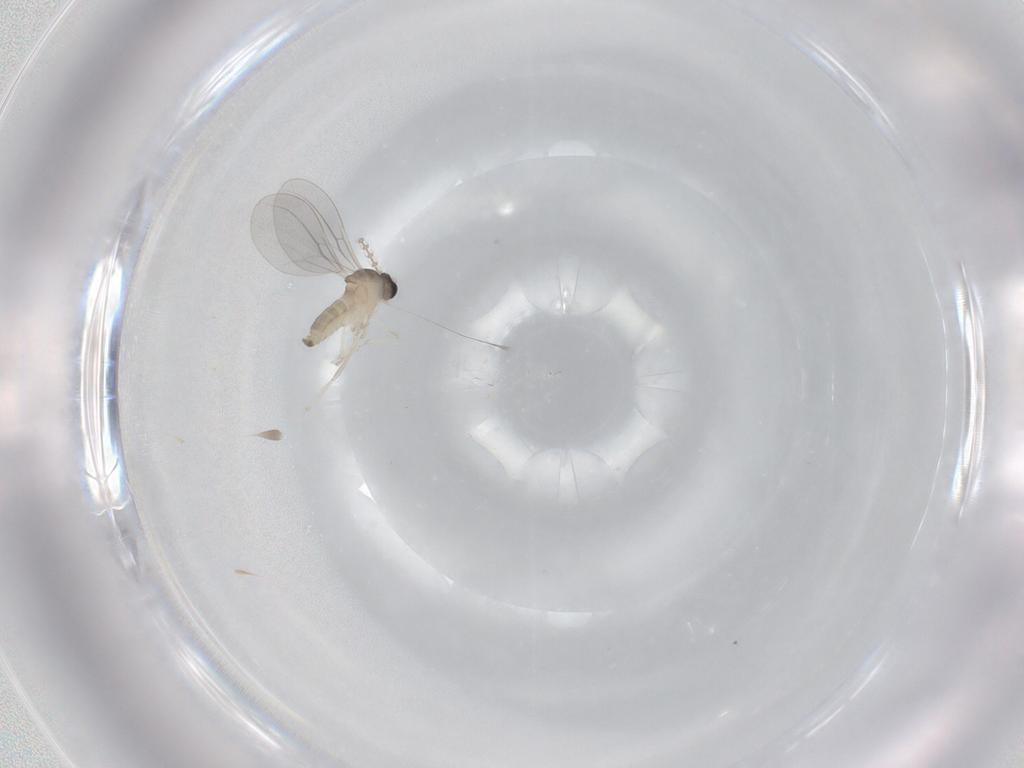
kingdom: Animalia
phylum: Arthropoda
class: Insecta
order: Diptera
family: Cecidomyiidae
